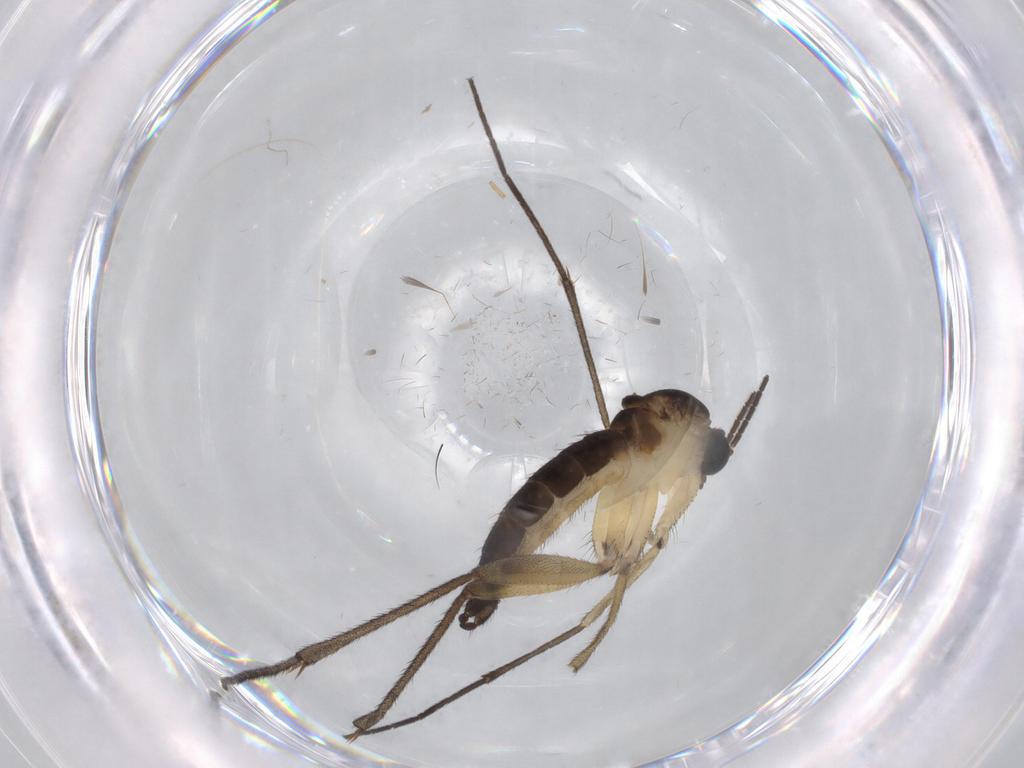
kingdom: Animalia
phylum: Arthropoda
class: Insecta
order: Diptera
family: Sciaridae
